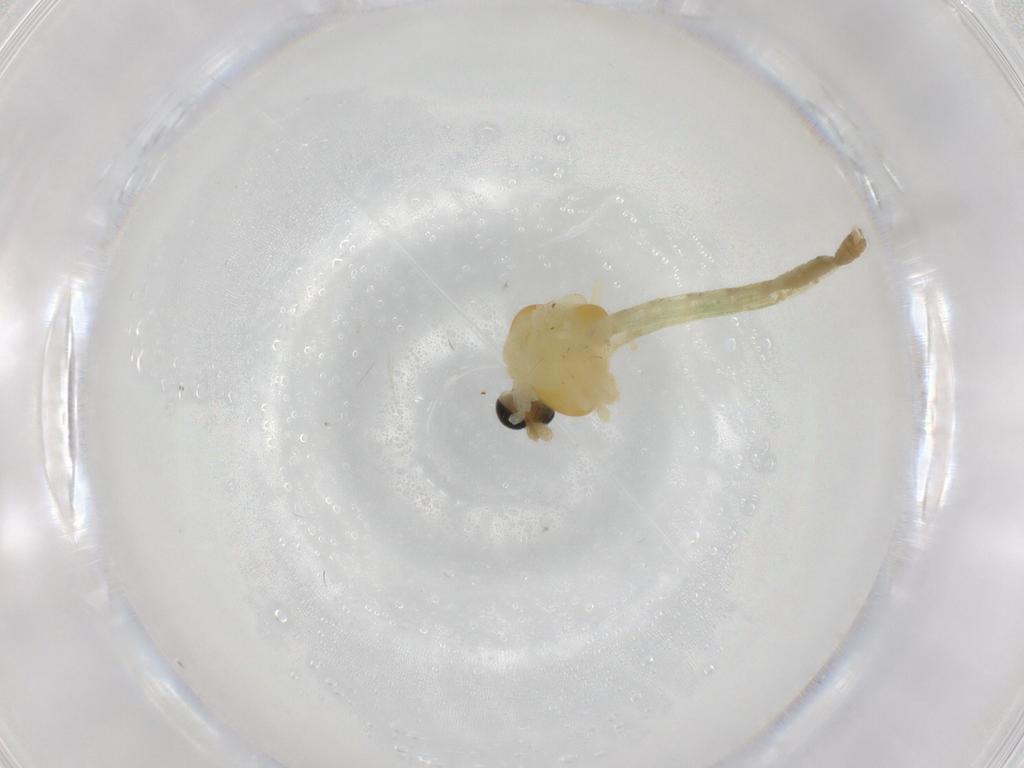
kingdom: Animalia
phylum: Arthropoda
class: Insecta
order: Diptera
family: Chironomidae
